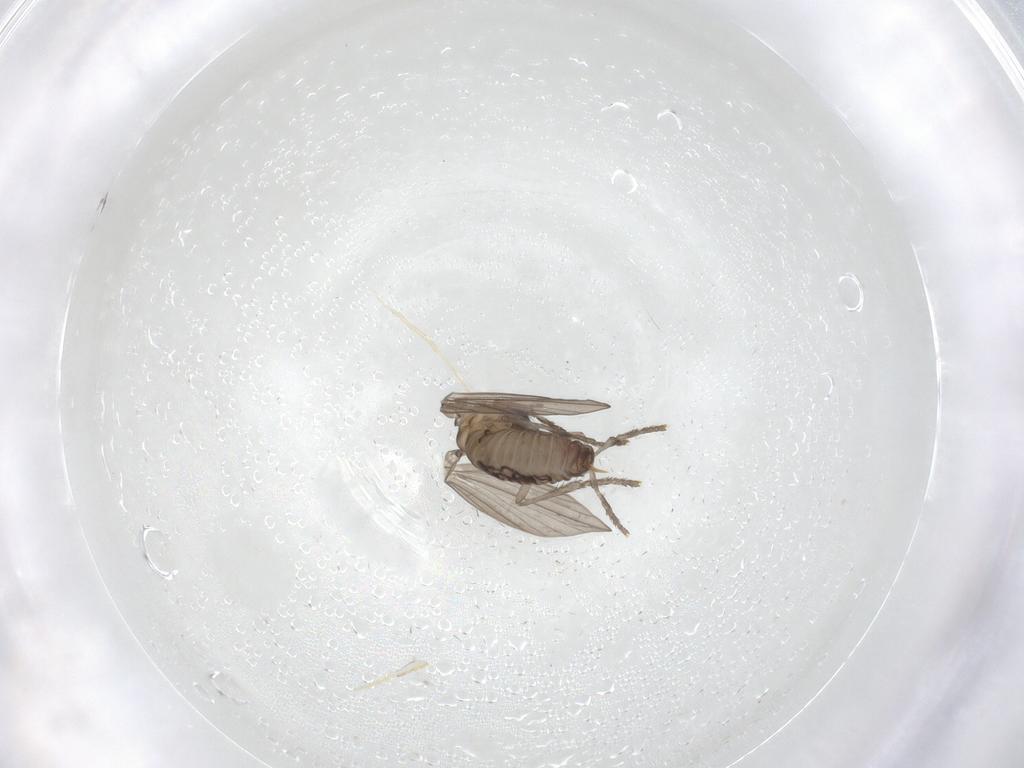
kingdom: Animalia
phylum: Arthropoda
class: Insecta
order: Diptera
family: Psychodidae
